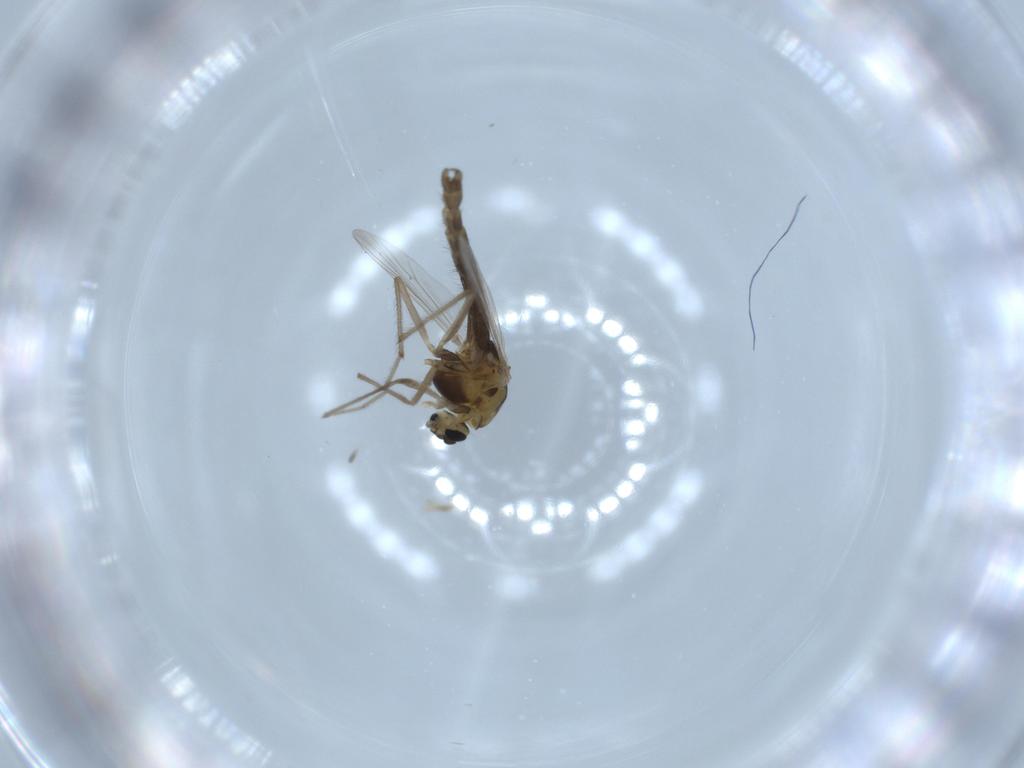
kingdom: Animalia
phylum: Arthropoda
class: Insecta
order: Diptera
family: Chironomidae
